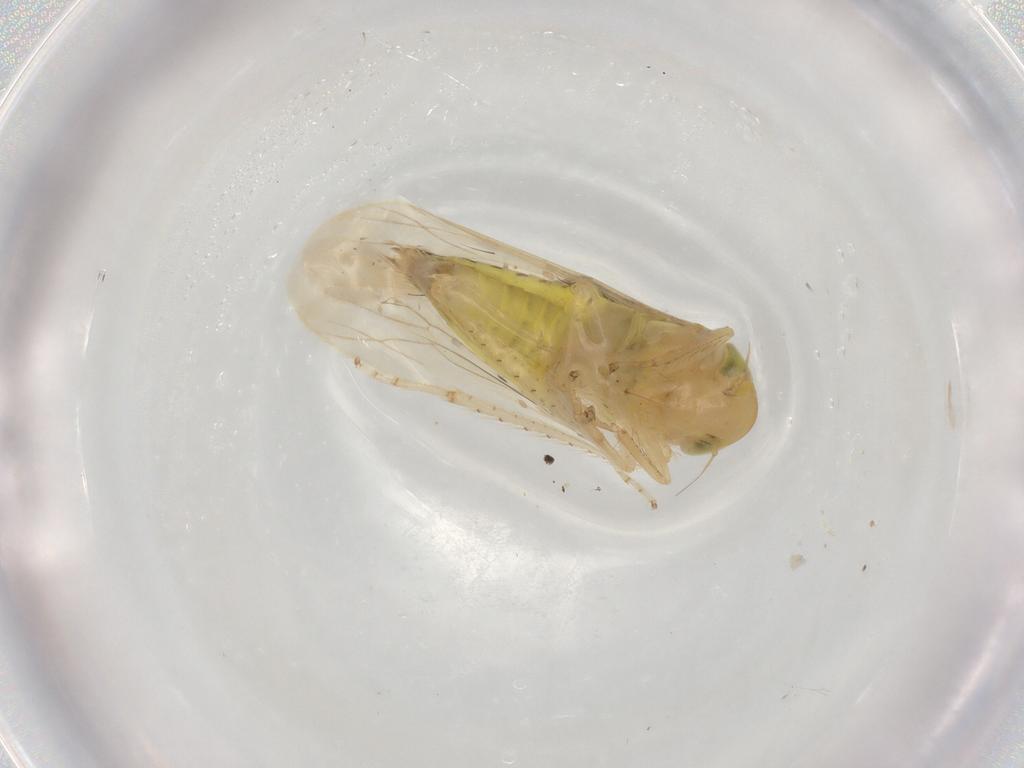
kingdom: Animalia
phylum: Arthropoda
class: Insecta
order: Hemiptera
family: Cicadellidae
